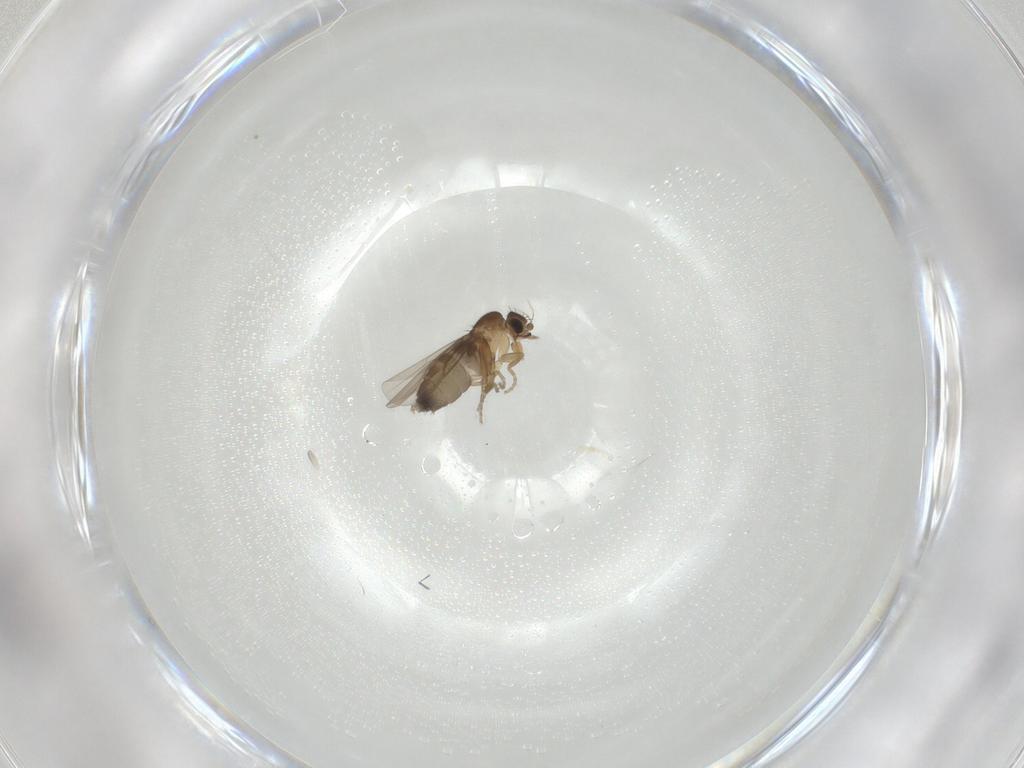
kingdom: Animalia
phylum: Arthropoda
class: Insecta
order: Diptera
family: Phoridae
